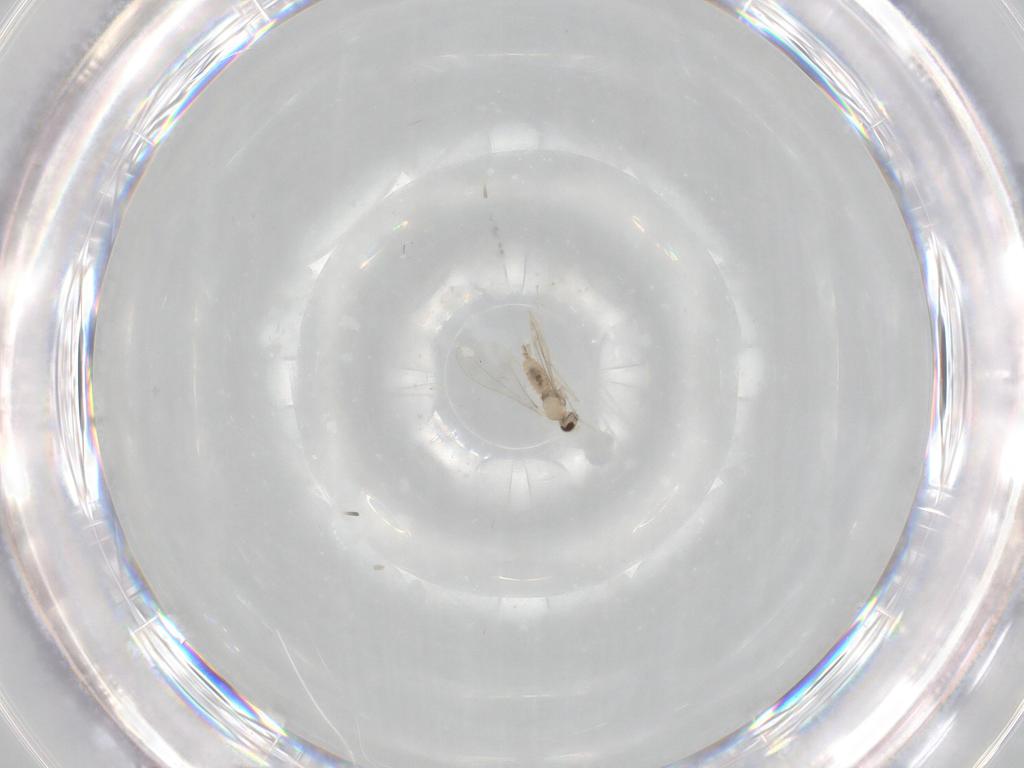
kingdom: Animalia
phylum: Arthropoda
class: Insecta
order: Diptera
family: Cecidomyiidae
